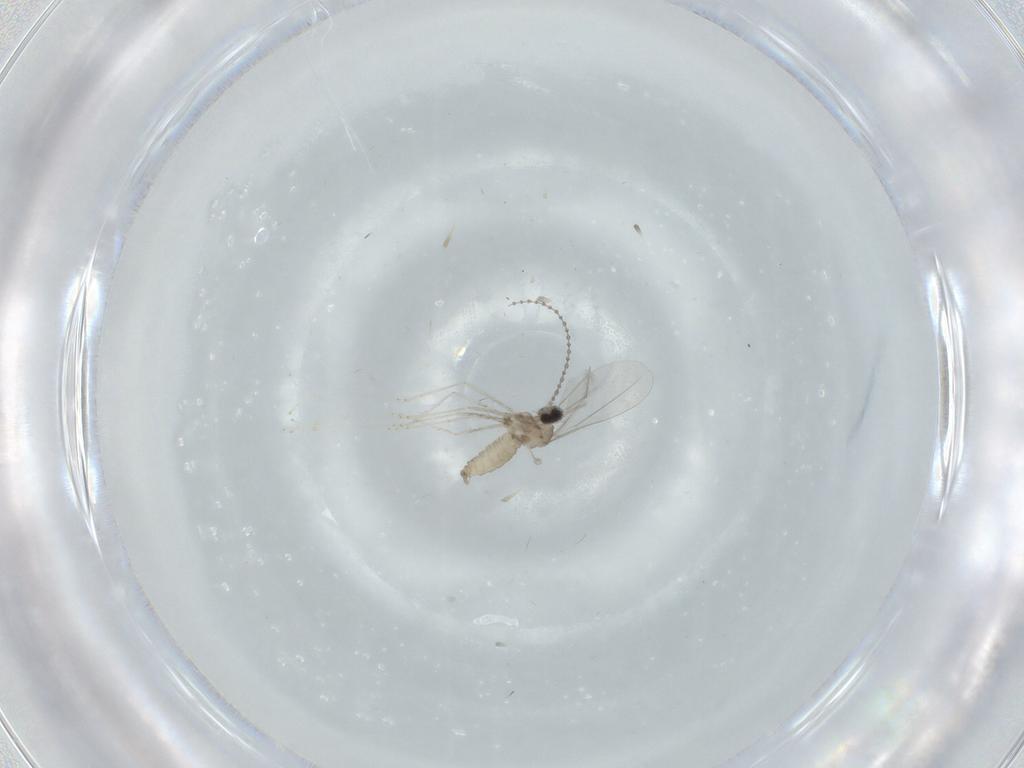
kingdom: Animalia
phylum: Arthropoda
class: Insecta
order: Diptera
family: Cecidomyiidae
